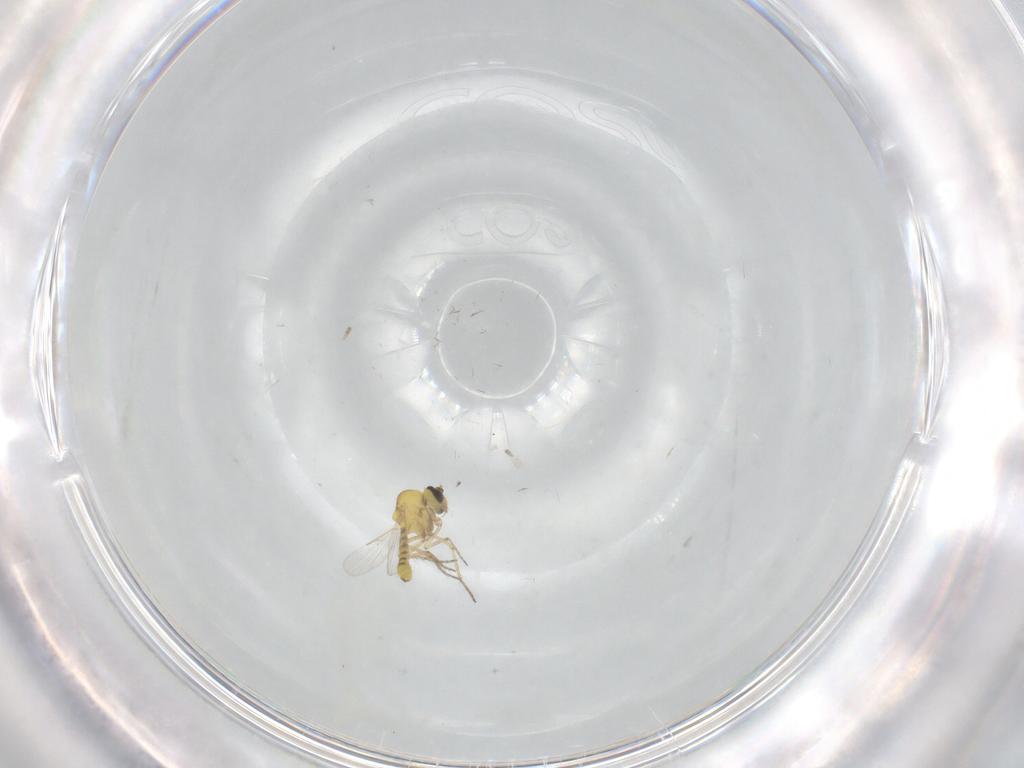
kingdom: Animalia
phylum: Arthropoda
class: Insecta
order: Diptera
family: Ceratopogonidae
